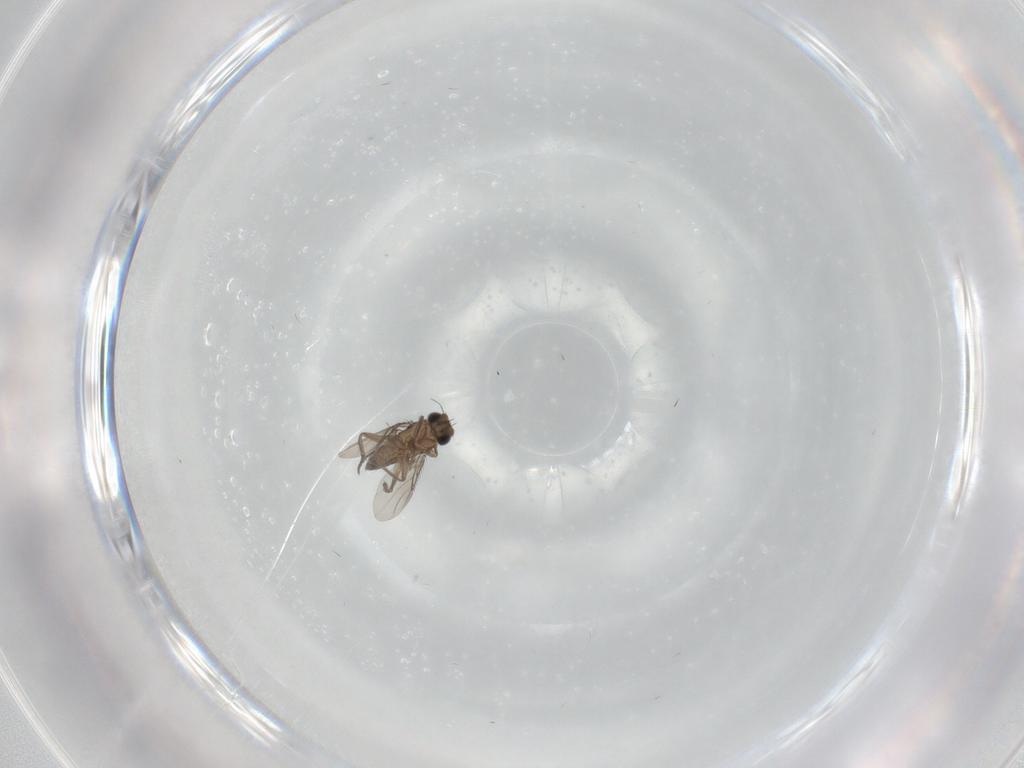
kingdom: Animalia
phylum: Arthropoda
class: Insecta
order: Diptera
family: Phoridae
